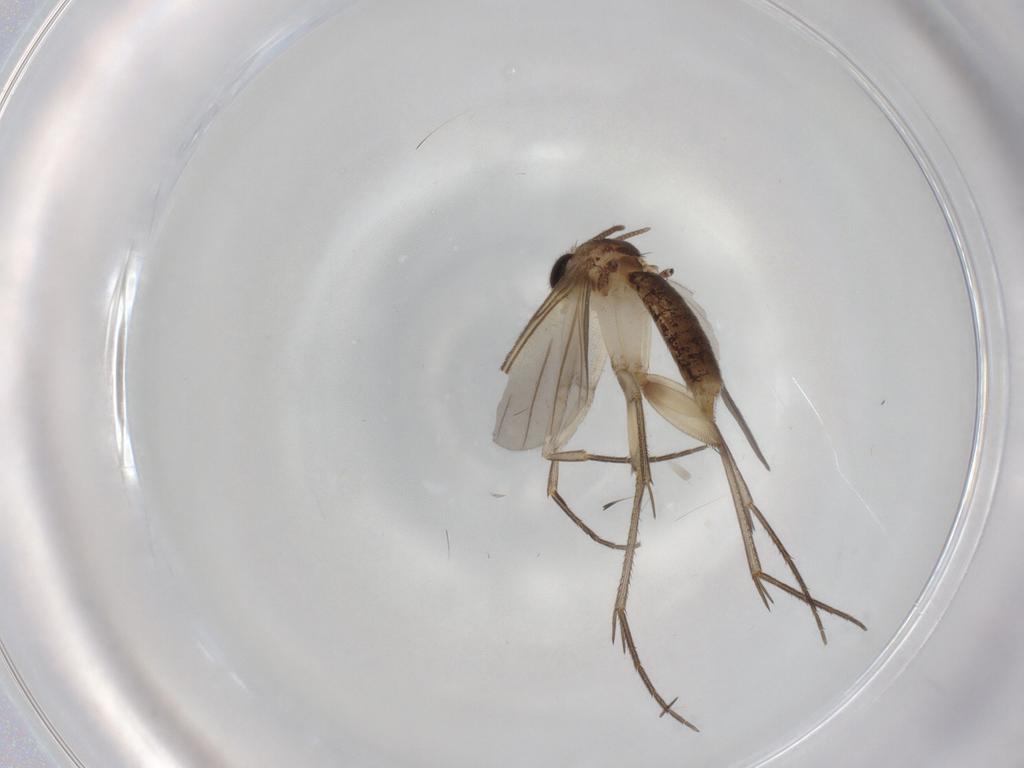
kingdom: Animalia
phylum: Arthropoda
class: Insecta
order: Diptera
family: Mycetophilidae
